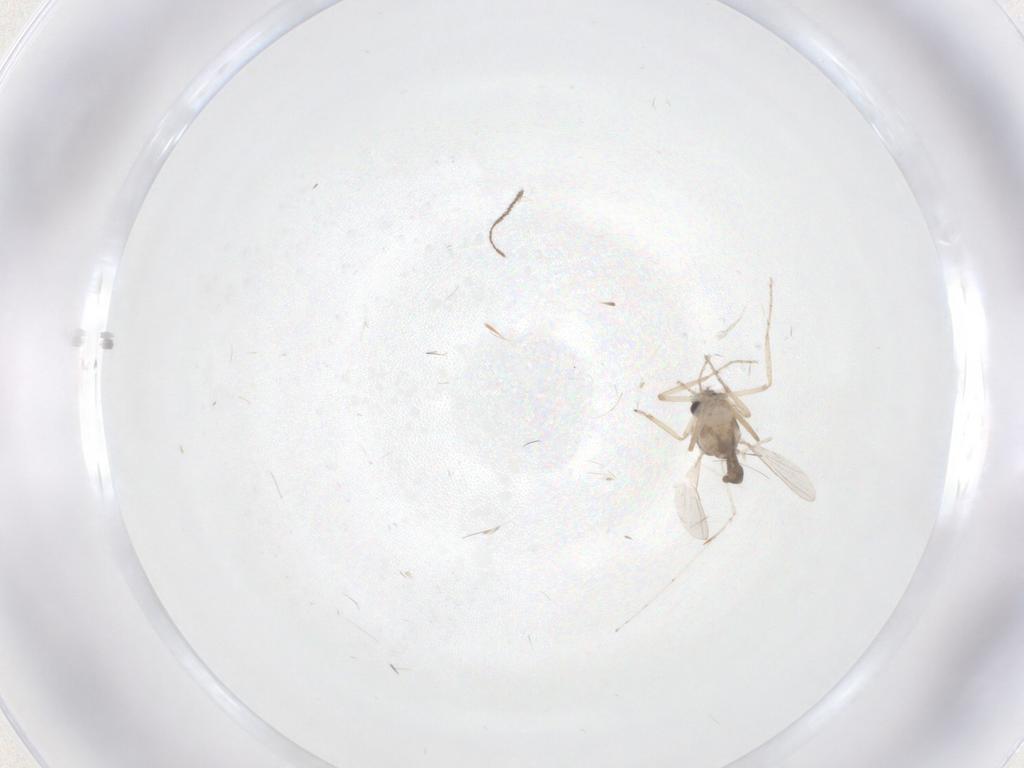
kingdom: Animalia
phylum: Arthropoda
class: Insecta
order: Diptera
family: Ceratopogonidae
